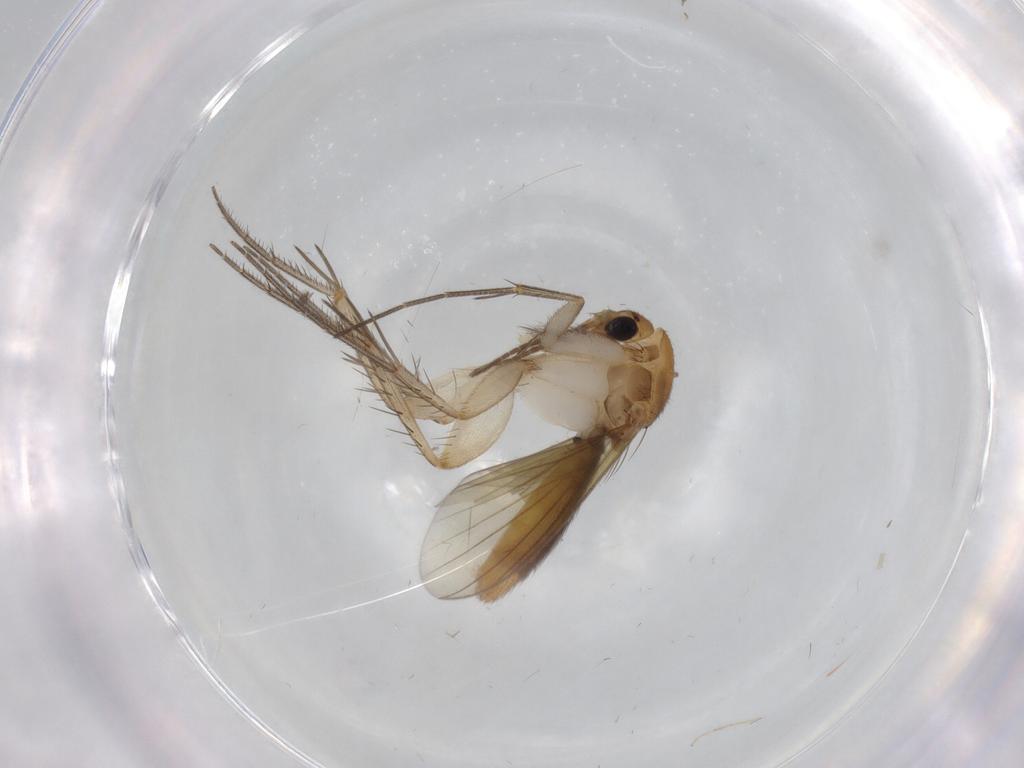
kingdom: Animalia
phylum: Arthropoda
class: Insecta
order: Diptera
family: Mycetophilidae
